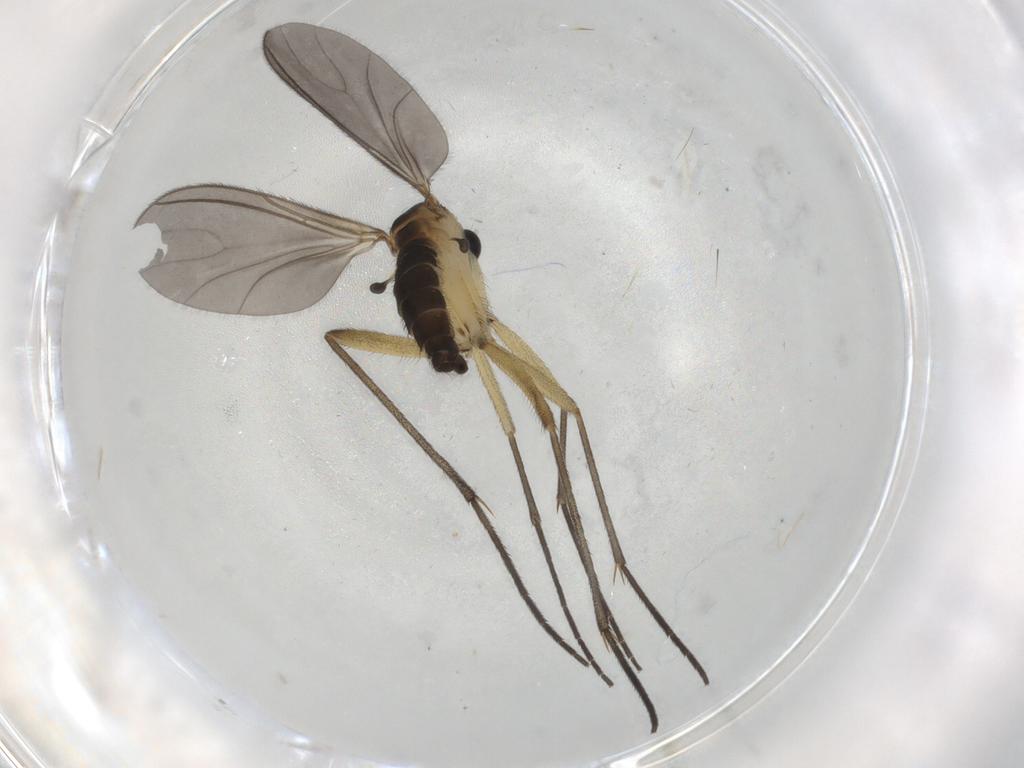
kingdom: Animalia
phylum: Arthropoda
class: Insecta
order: Diptera
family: Sciaridae
